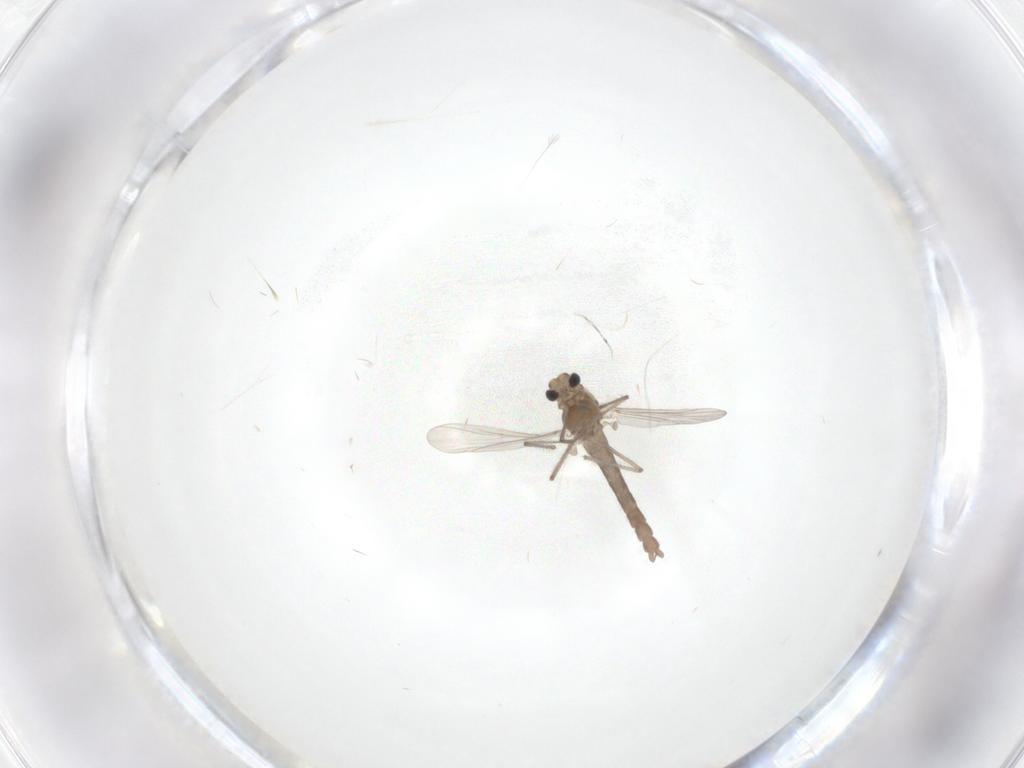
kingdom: Animalia
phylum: Arthropoda
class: Insecta
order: Diptera
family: Chironomidae
